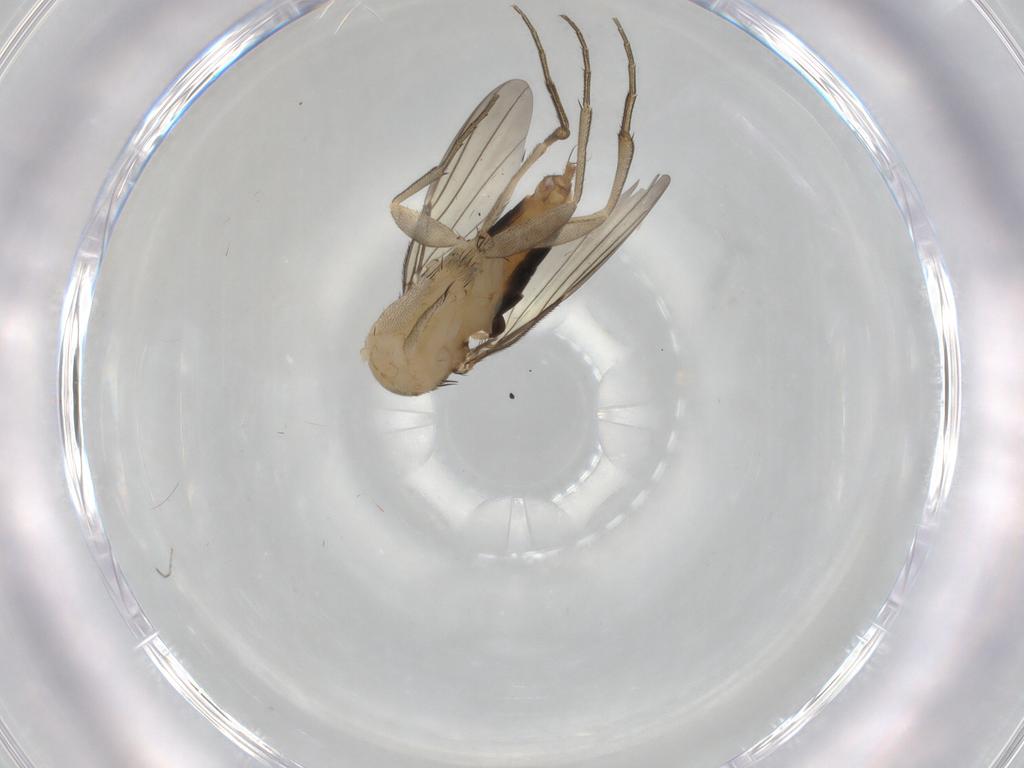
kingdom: Animalia
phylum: Arthropoda
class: Insecta
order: Diptera
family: Phoridae
